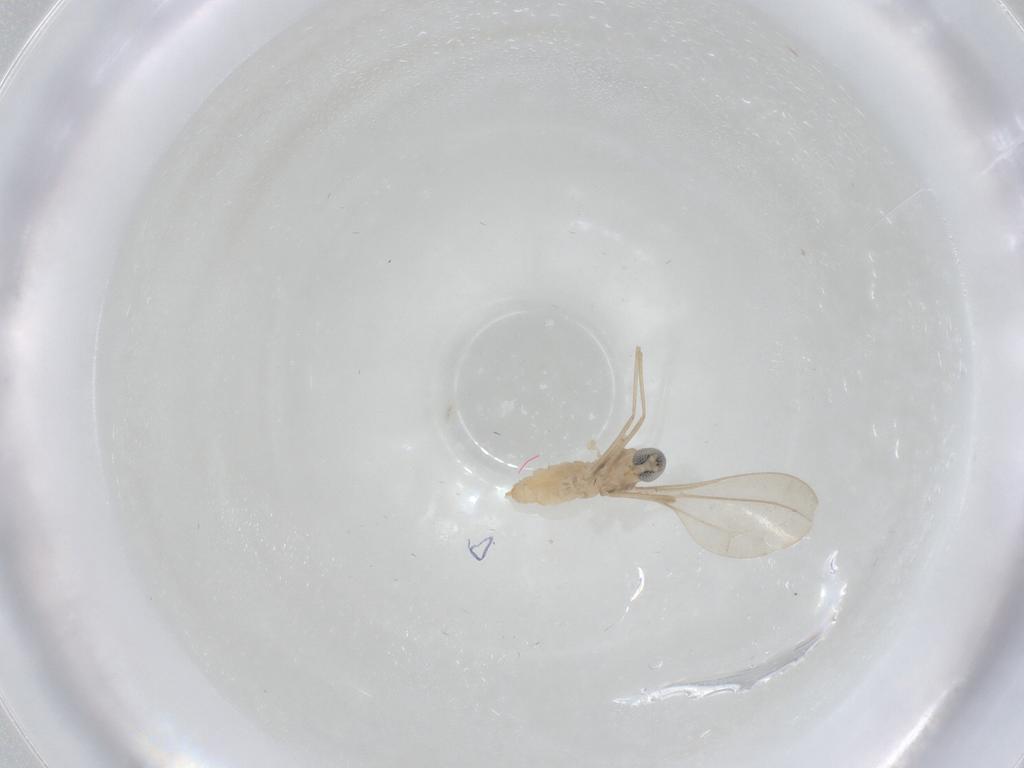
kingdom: Animalia
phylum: Arthropoda
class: Insecta
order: Diptera
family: Cecidomyiidae
